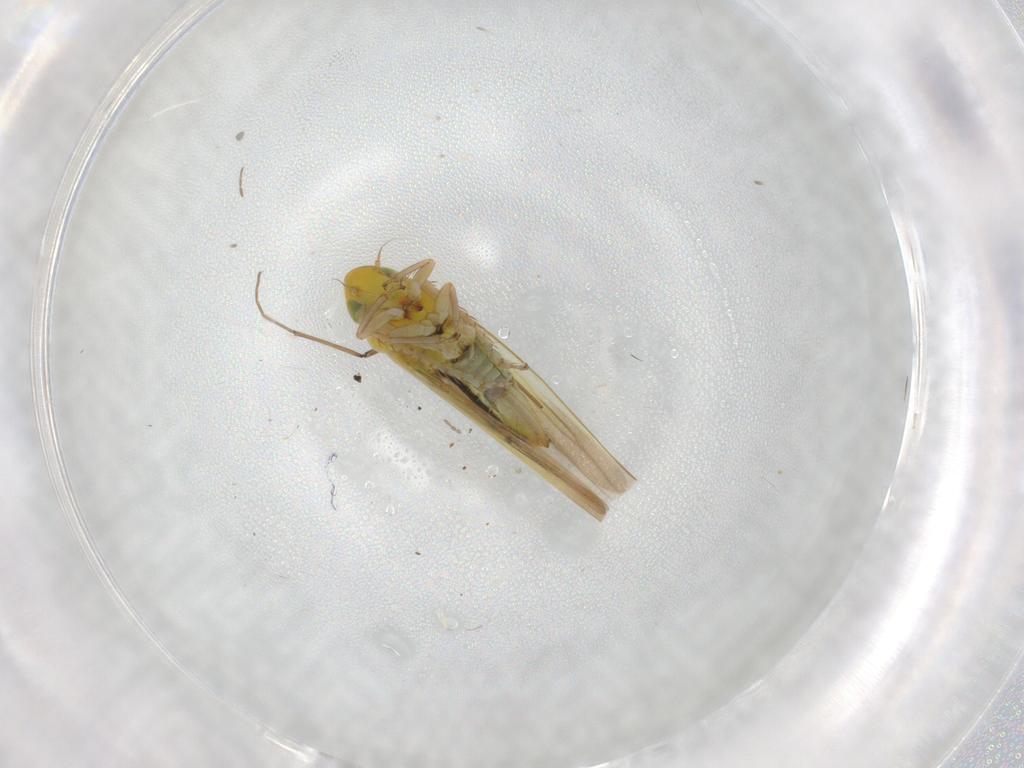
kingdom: Animalia
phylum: Arthropoda
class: Insecta
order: Hemiptera
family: Cicadellidae
